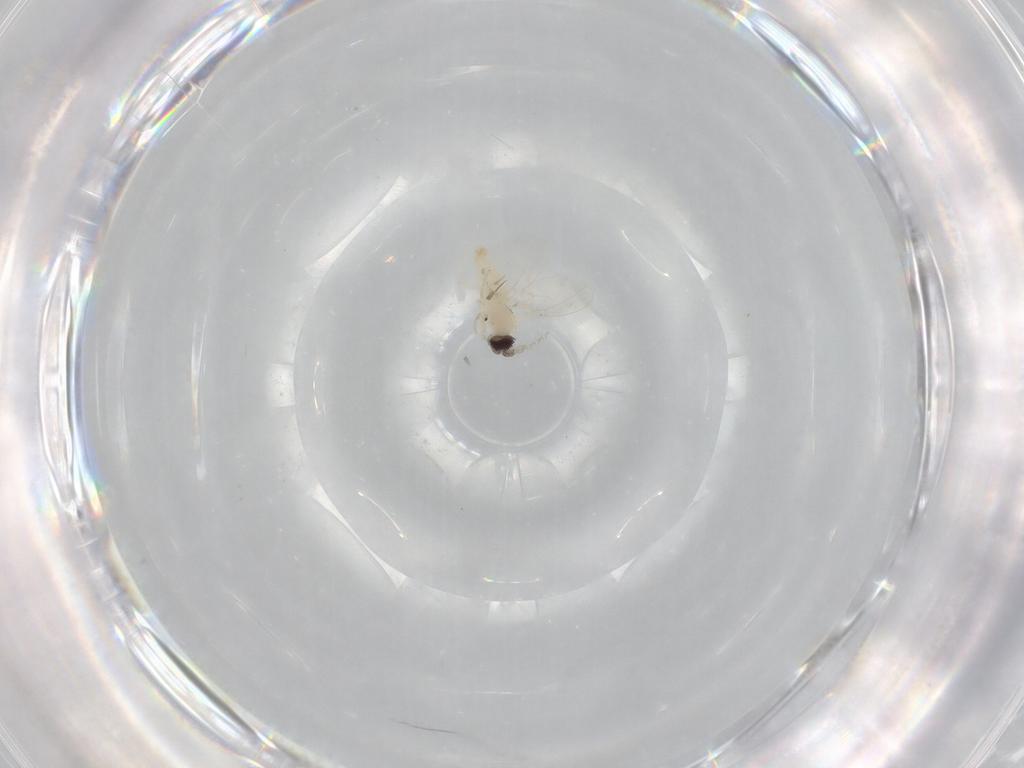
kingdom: Animalia
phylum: Arthropoda
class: Insecta
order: Diptera
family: Cecidomyiidae
